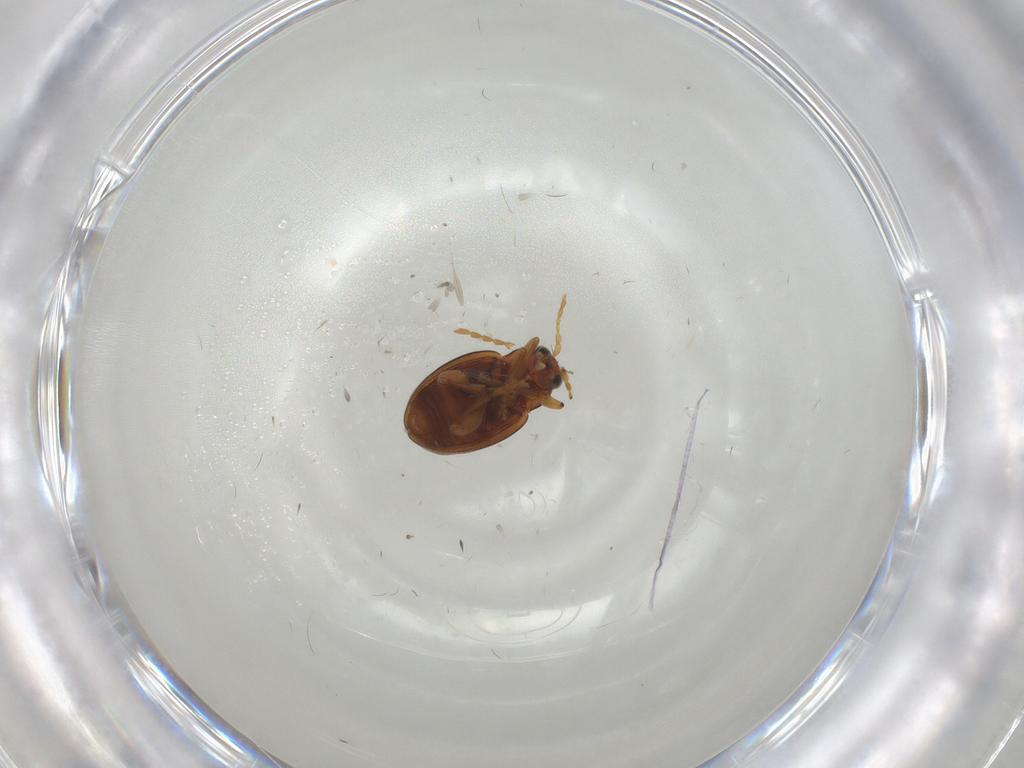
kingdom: Animalia
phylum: Arthropoda
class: Insecta
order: Coleoptera
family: Chrysomelidae
